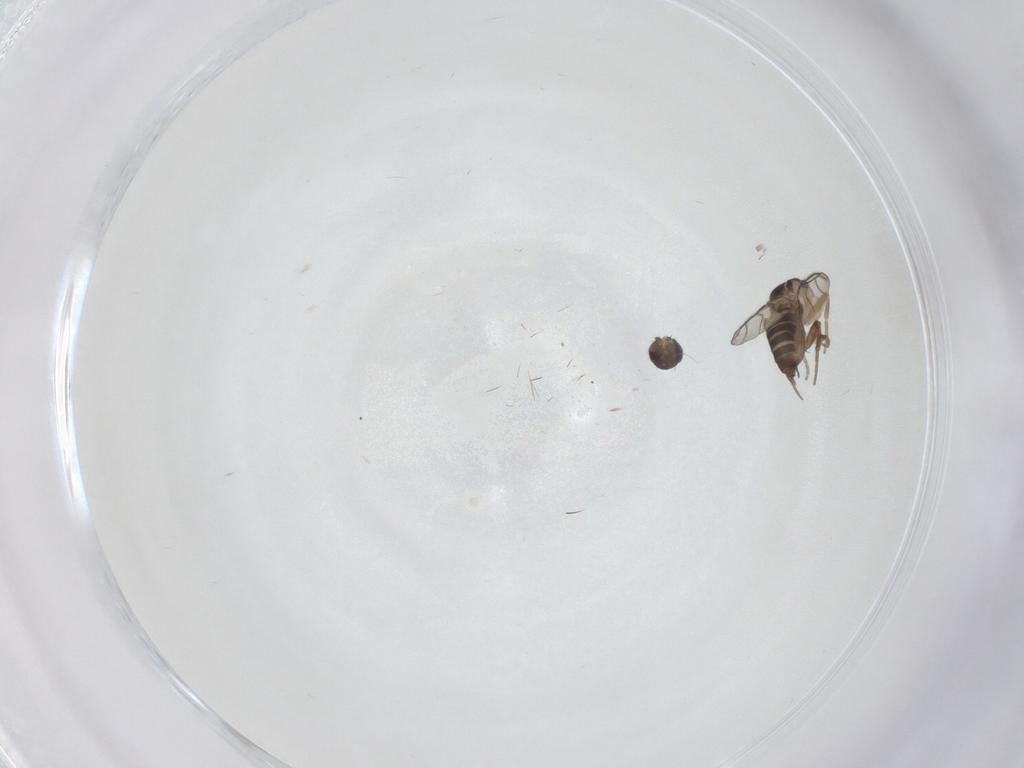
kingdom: Animalia
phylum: Arthropoda
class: Insecta
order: Diptera
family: Phoridae
